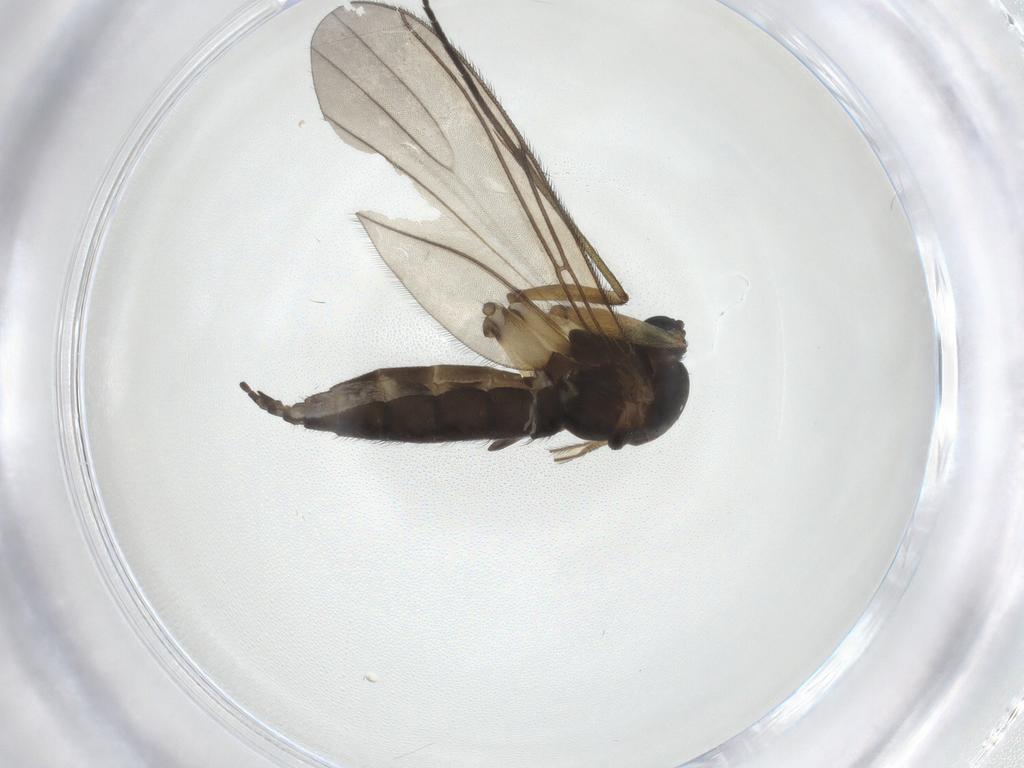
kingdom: Animalia
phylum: Arthropoda
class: Insecta
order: Diptera
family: Sciaridae
